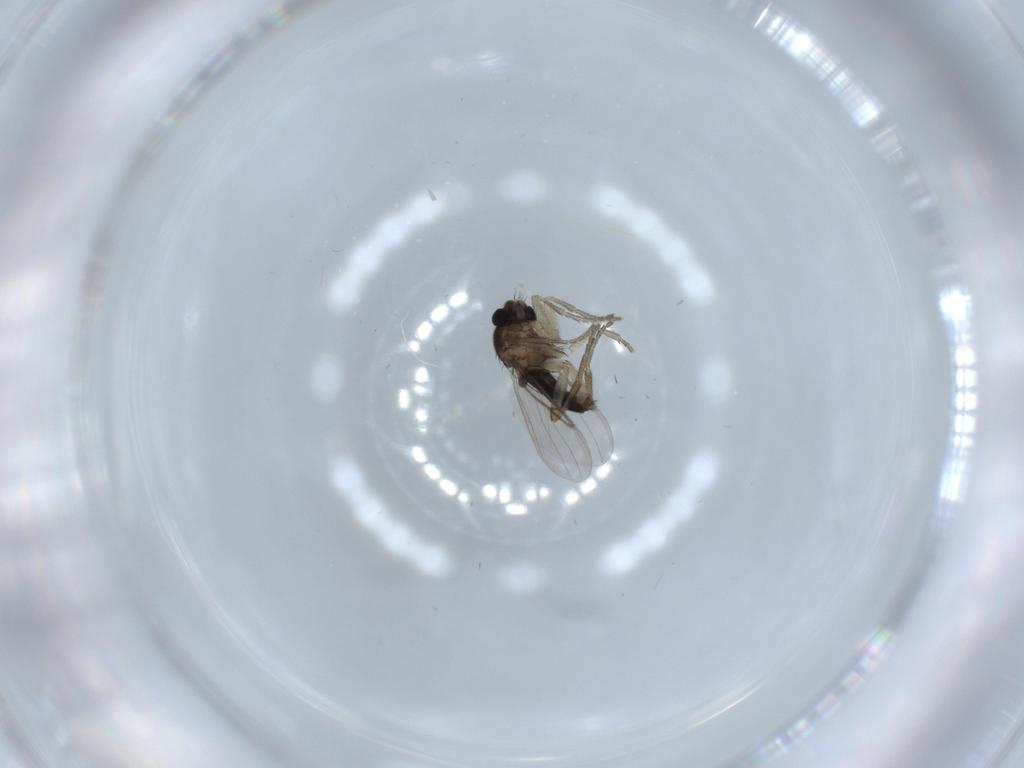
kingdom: Animalia
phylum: Arthropoda
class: Insecta
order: Diptera
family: Phoridae
